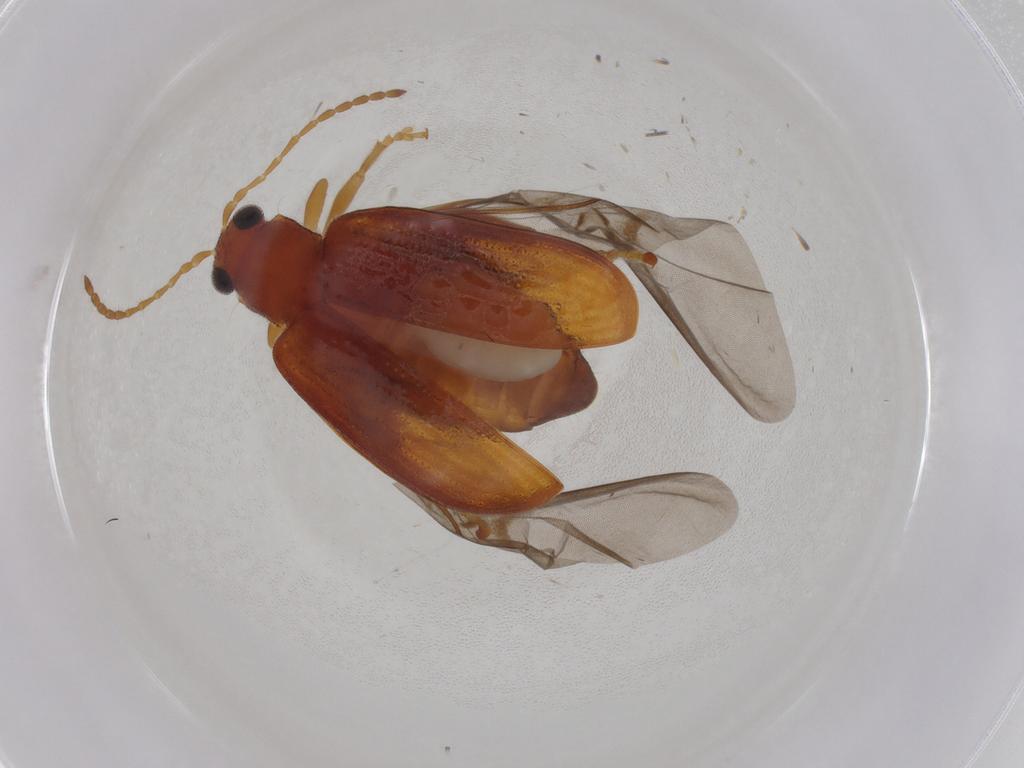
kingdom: Animalia
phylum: Arthropoda
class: Insecta
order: Coleoptera
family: Chrysomelidae
